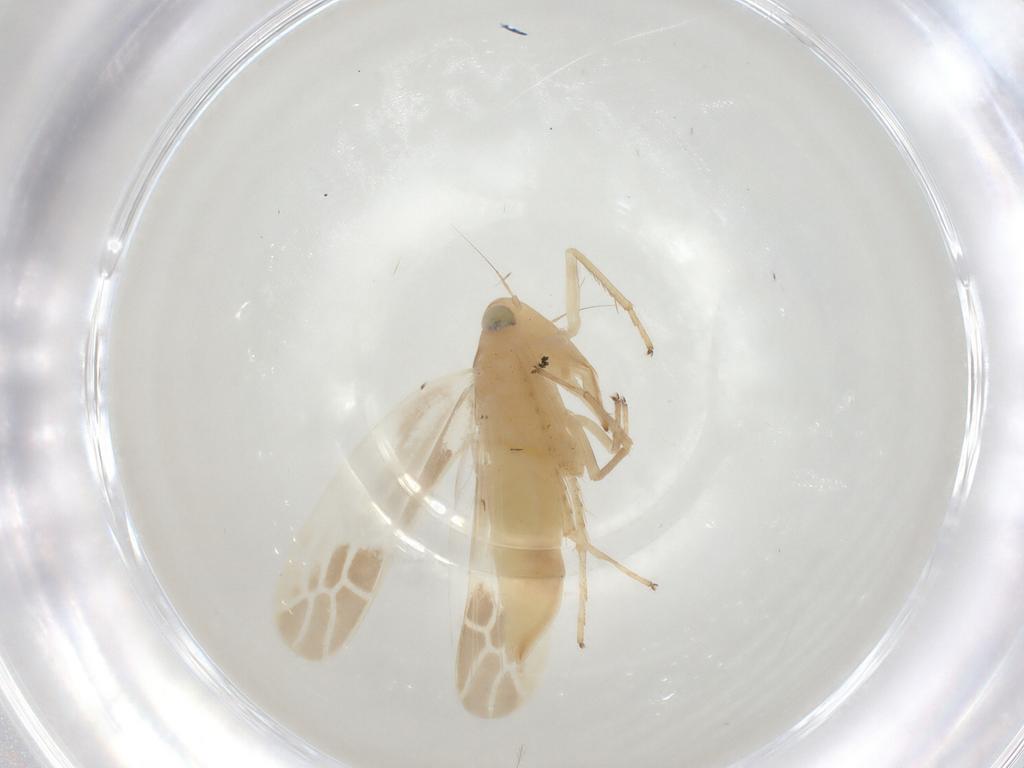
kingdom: Animalia
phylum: Arthropoda
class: Insecta
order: Hemiptera
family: Cicadellidae
